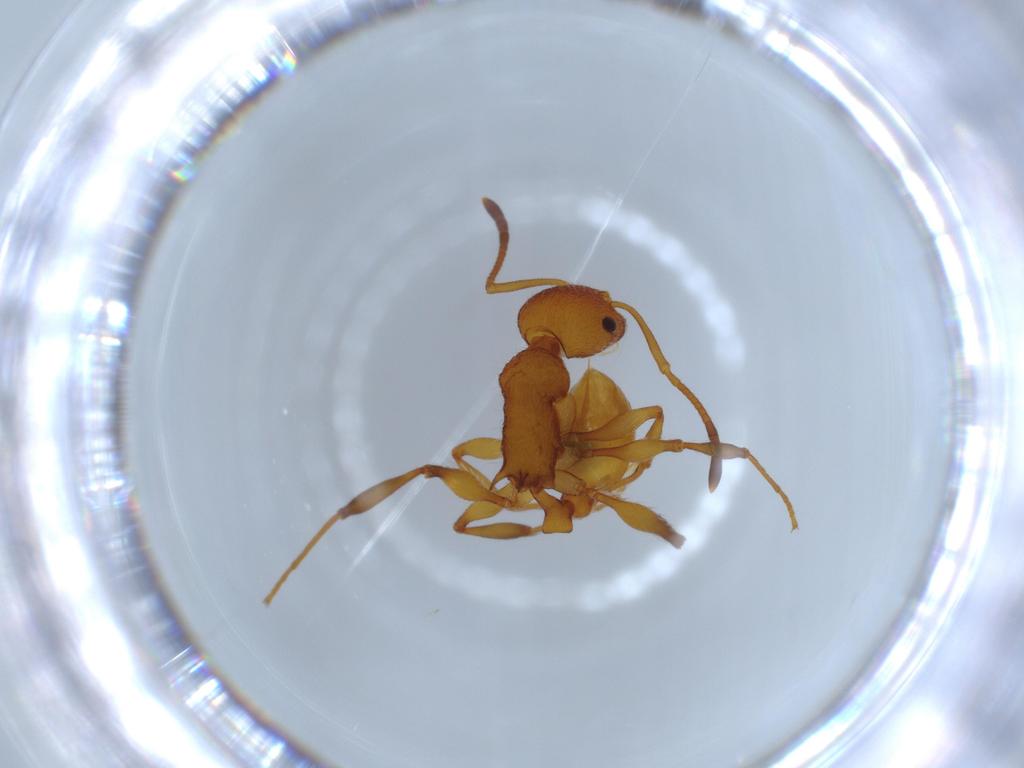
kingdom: Animalia
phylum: Arthropoda
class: Insecta
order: Hymenoptera
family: Formicidae
